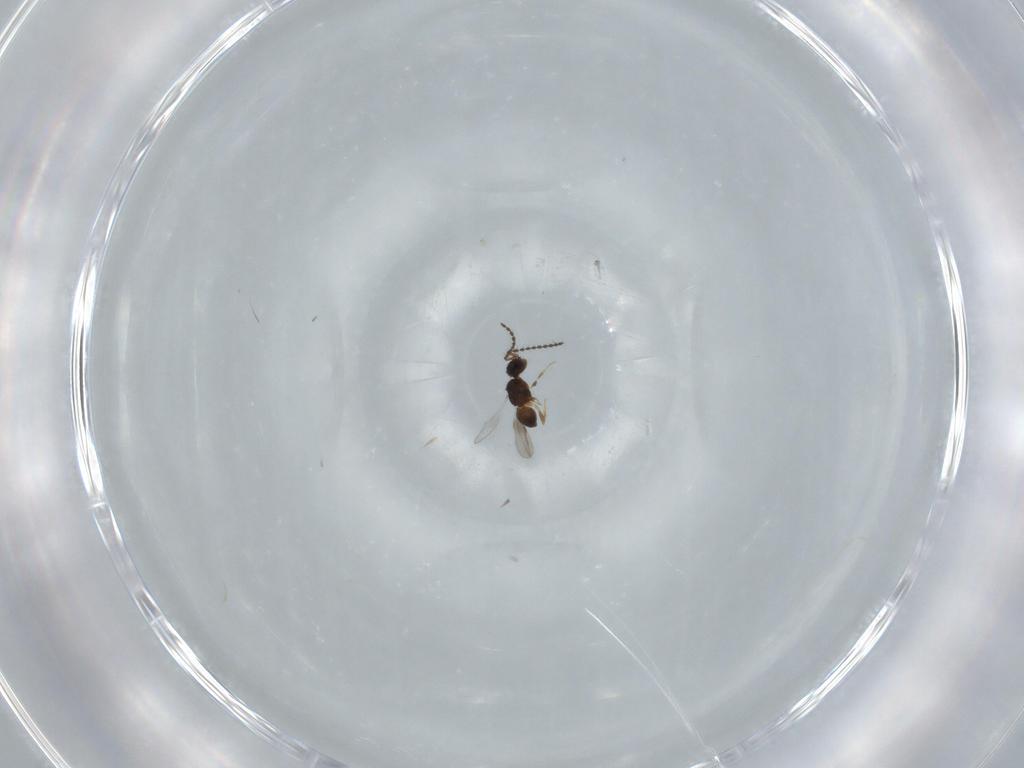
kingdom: Animalia
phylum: Arthropoda
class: Insecta
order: Hymenoptera
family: Ceraphronidae
